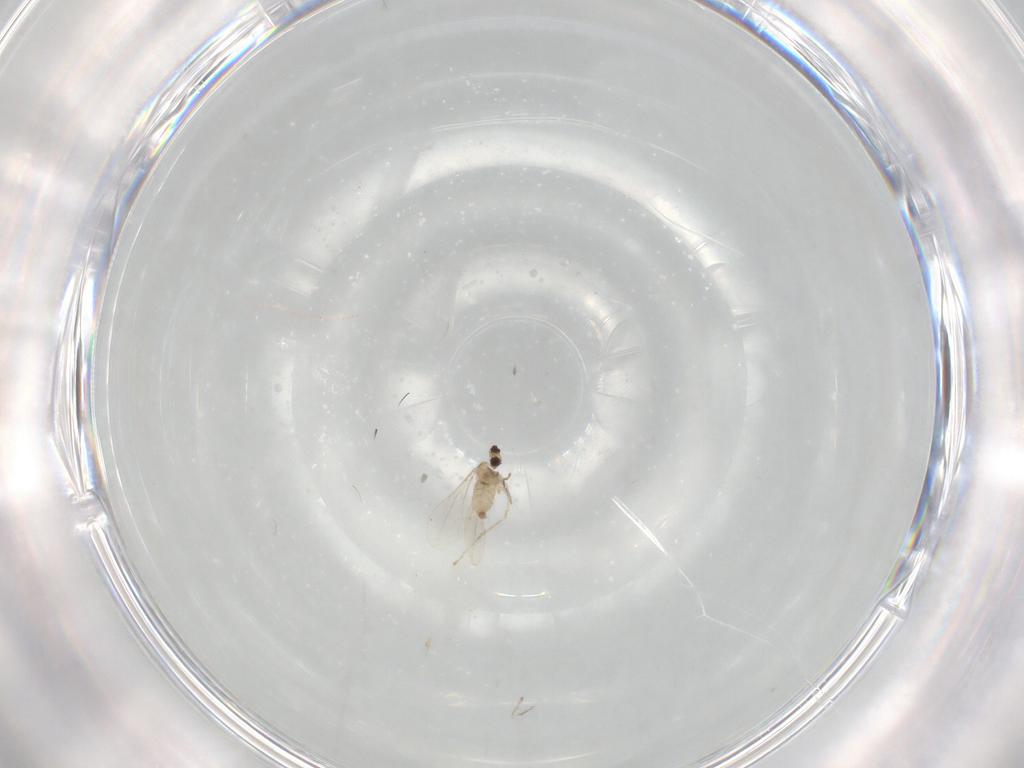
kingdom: Animalia
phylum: Arthropoda
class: Insecta
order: Diptera
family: Cecidomyiidae
